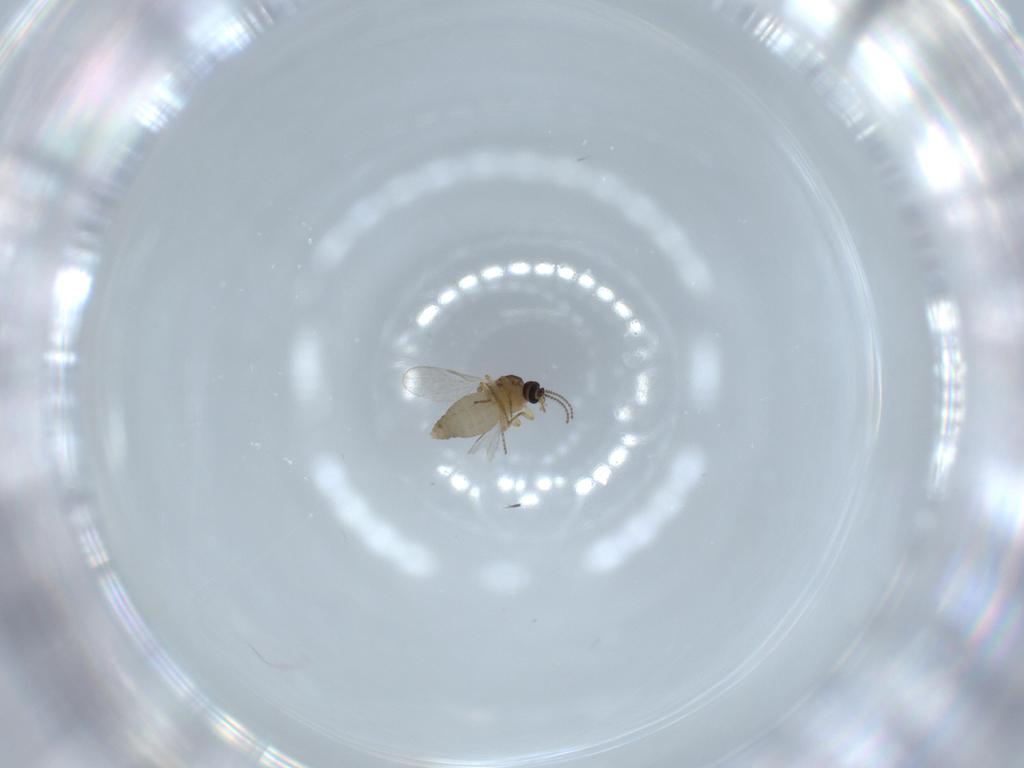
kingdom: Animalia
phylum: Arthropoda
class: Insecta
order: Diptera
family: Ceratopogonidae
